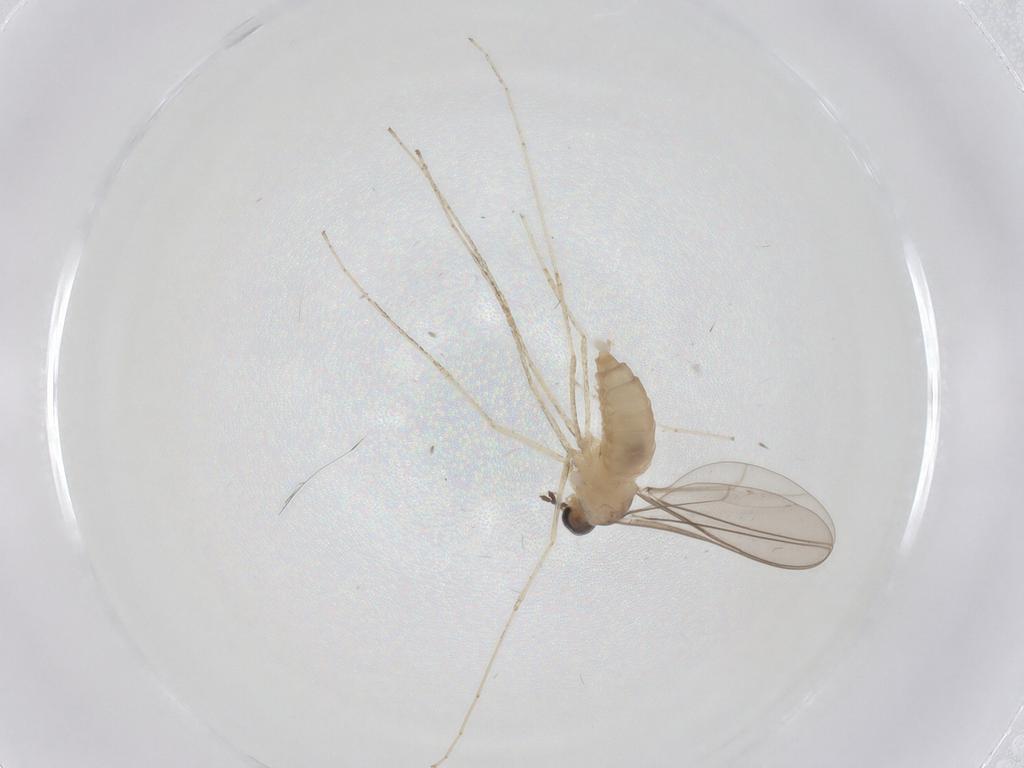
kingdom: Animalia
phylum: Arthropoda
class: Insecta
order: Diptera
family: Cecidomyiidae
